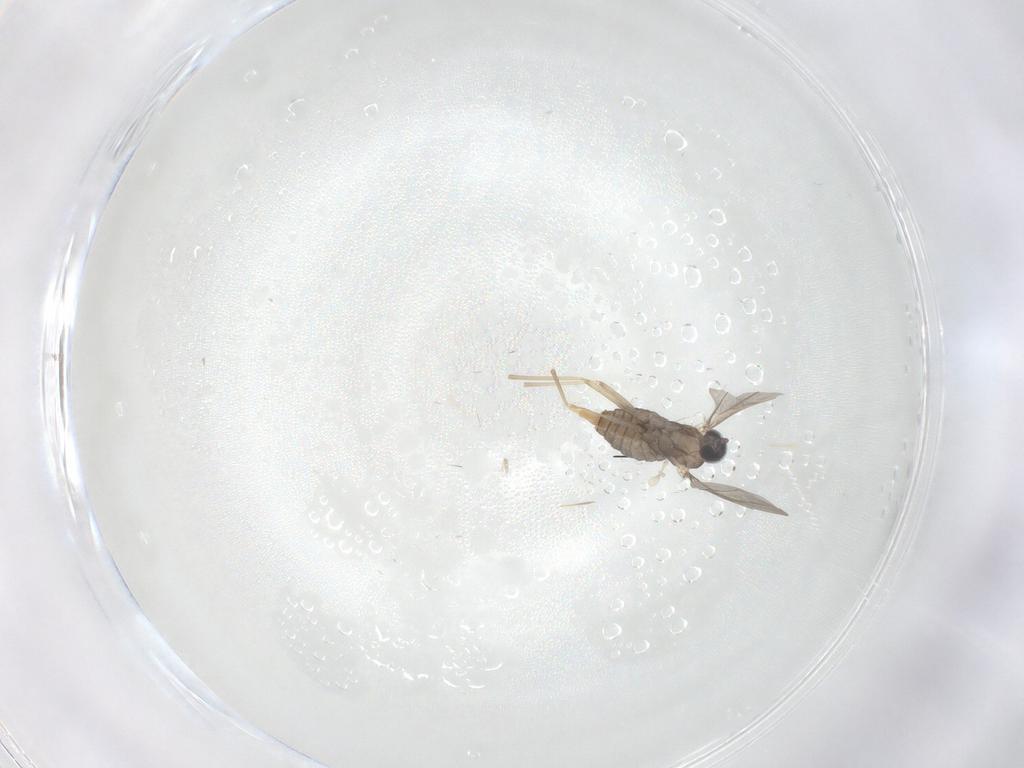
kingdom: Animalia
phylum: Arthropoda
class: Insecta
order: Diptera
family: Cecidomyiidae
